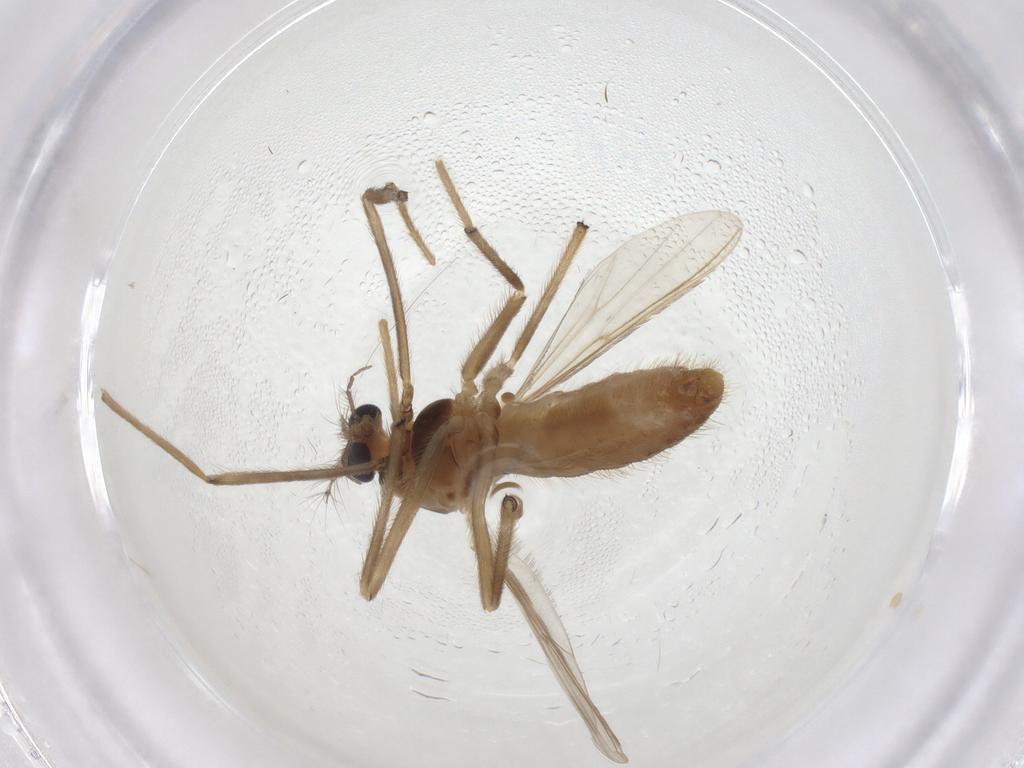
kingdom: Animalia
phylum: Arthropoda
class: Insecta
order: Diptera
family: Chironomidae
